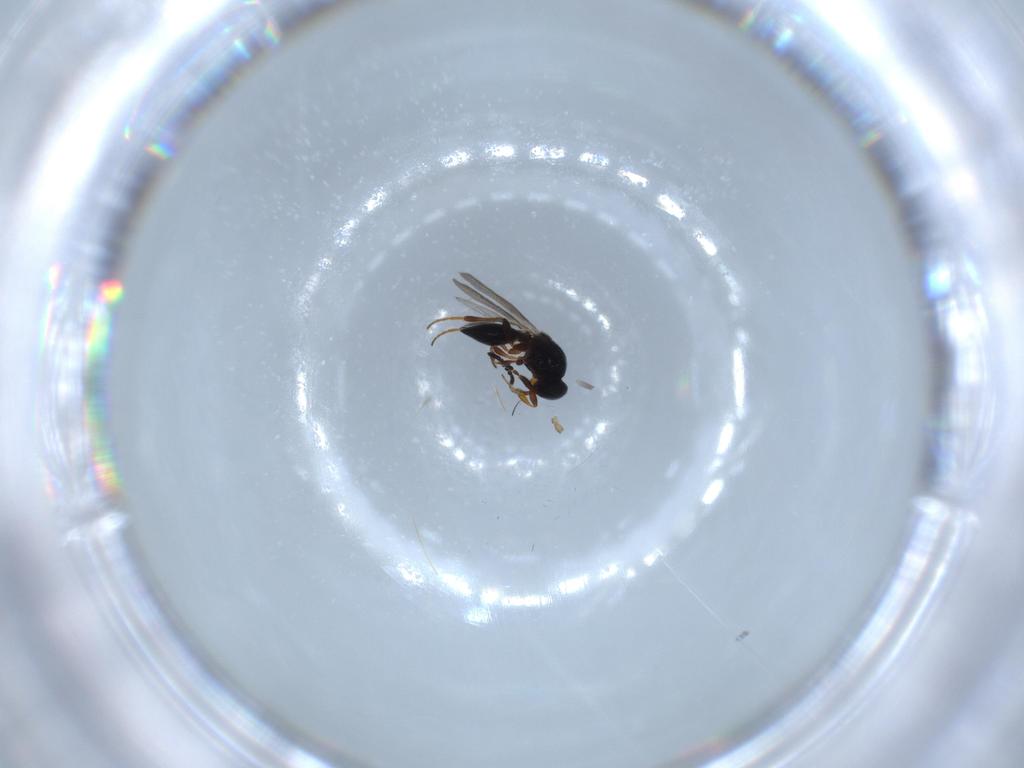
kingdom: Animalia
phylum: Arthropoda
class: Insecta
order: Hymenoptera
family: Platygastridae
